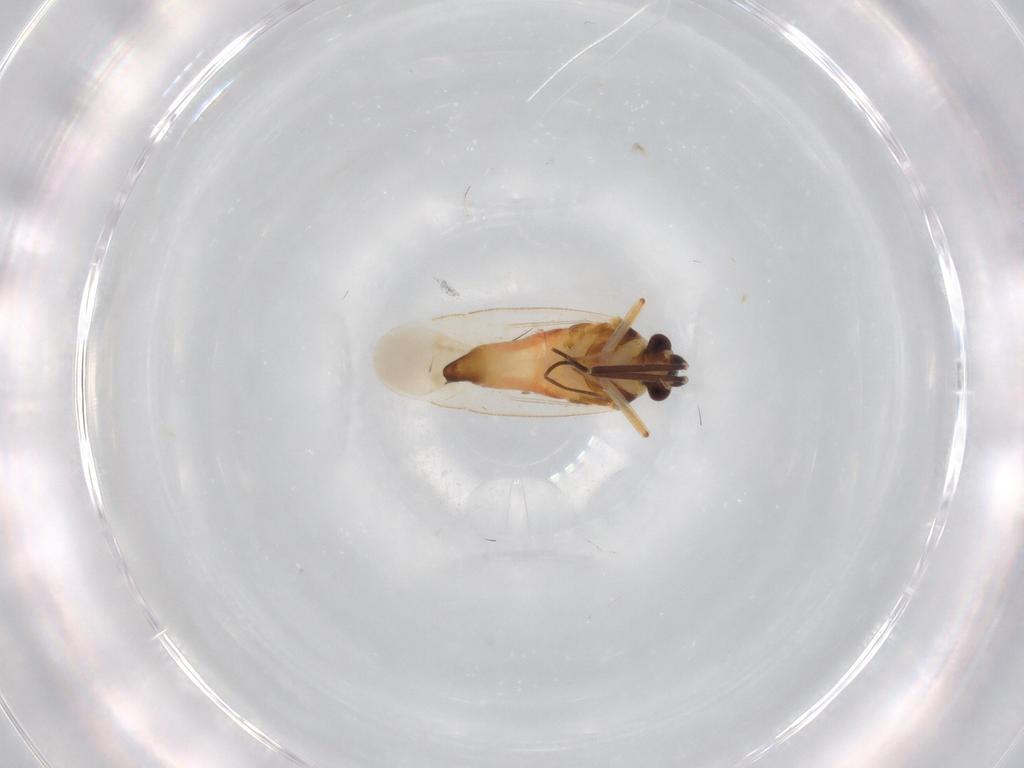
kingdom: Animalia
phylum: Arthropoda
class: Insecta
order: Hemiptera
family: Miridae
